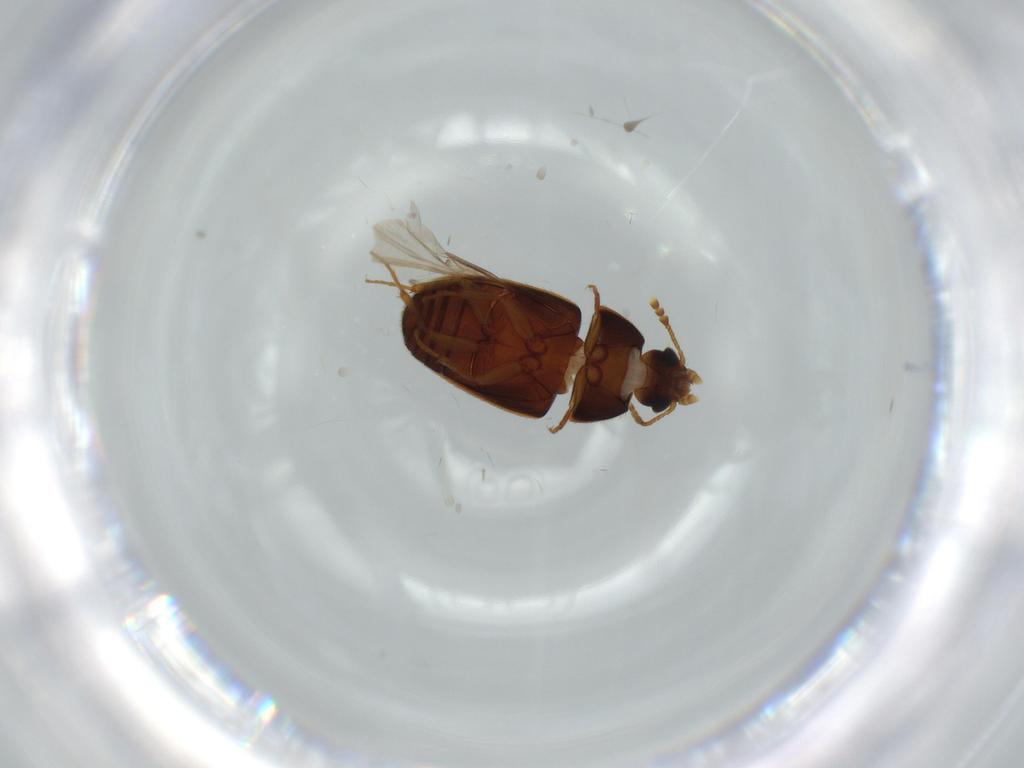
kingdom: Animalia
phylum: Arthropoda
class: Insecta
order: Coleoptera
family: Mycetophagidae
